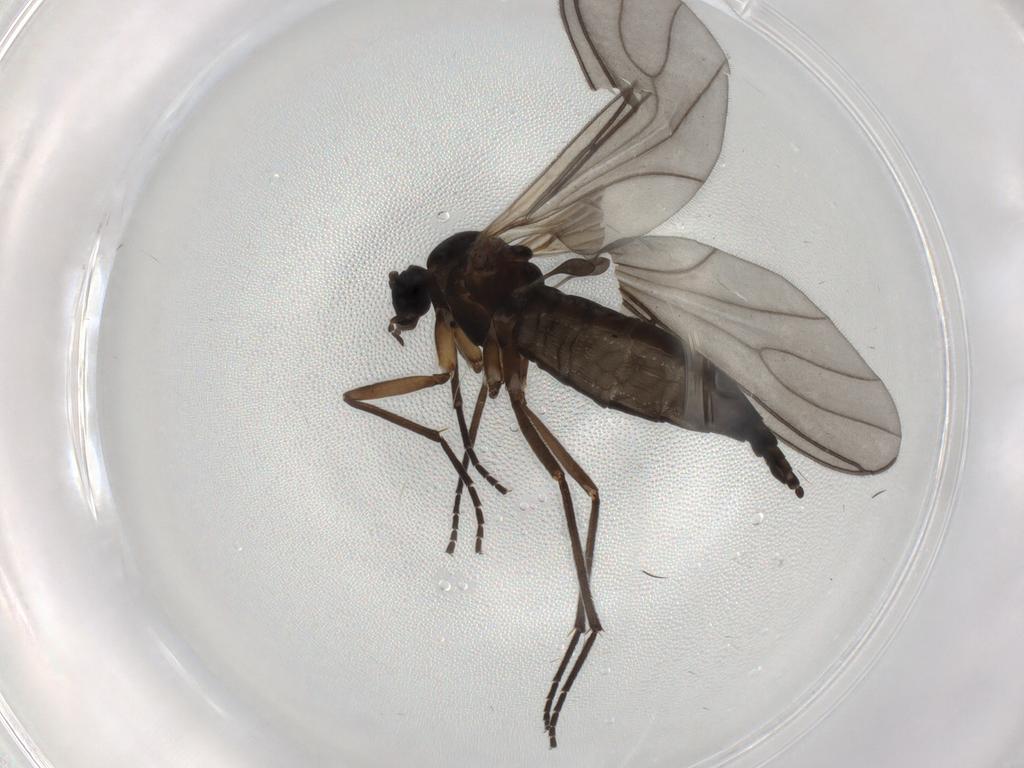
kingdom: Animalia
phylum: Arthropoda
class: Insecta
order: Diptera
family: Sciaridae
